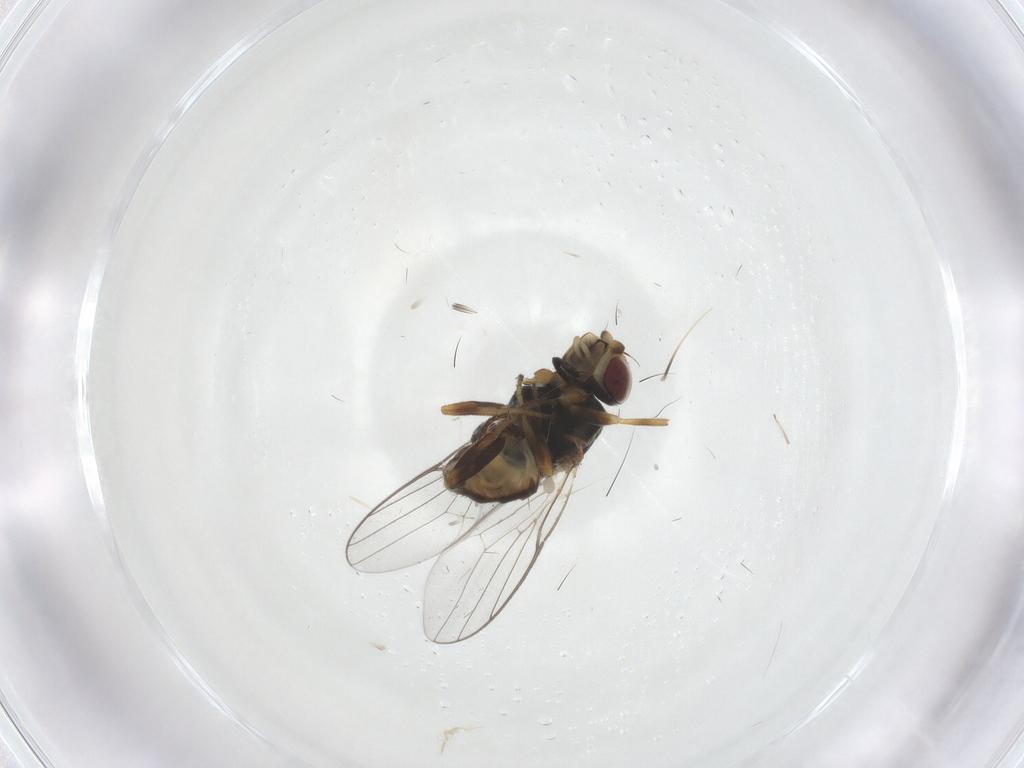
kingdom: Animalia
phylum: Arthropoda
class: Insecta
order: Diptera
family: Chloropidae
